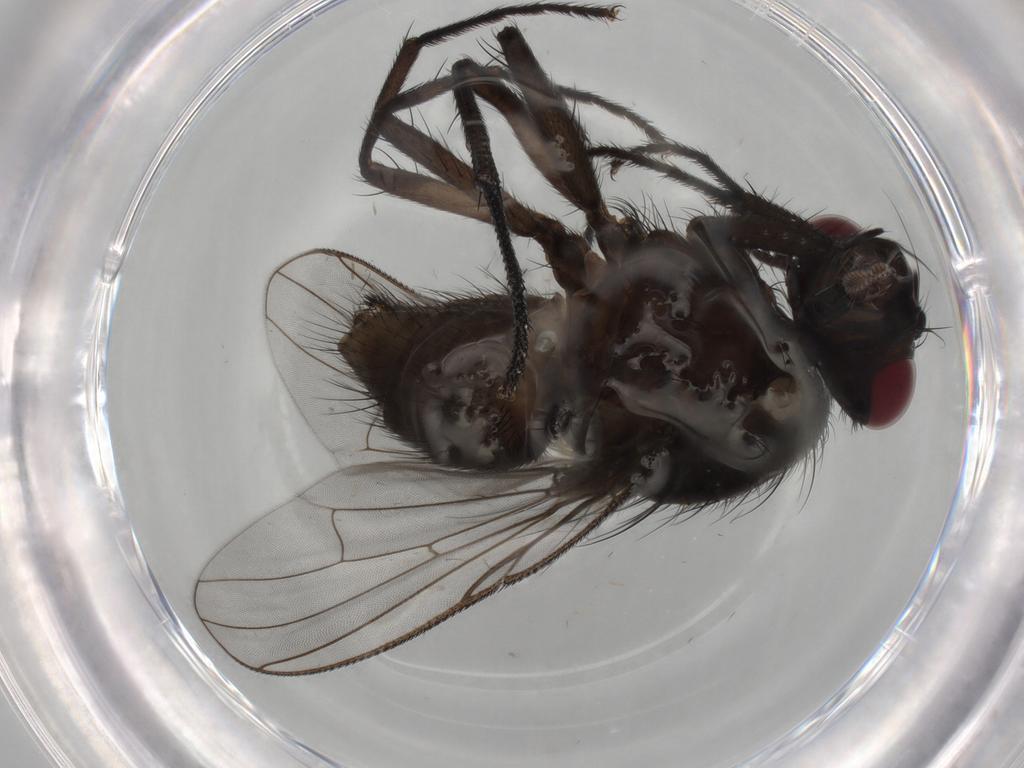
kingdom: Animalia
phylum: Arthropoda
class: Insecta
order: Diptera
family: Muscidae
